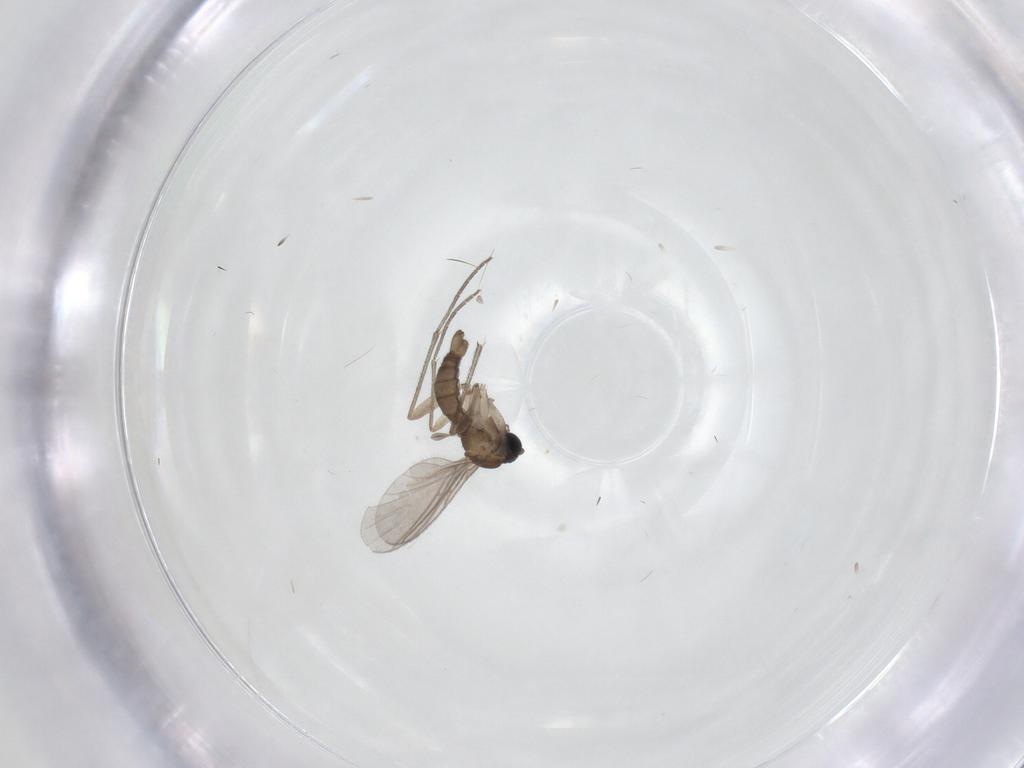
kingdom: Animalia
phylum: Arthropoda
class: Insecta
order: Diptera
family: Sciaridae
